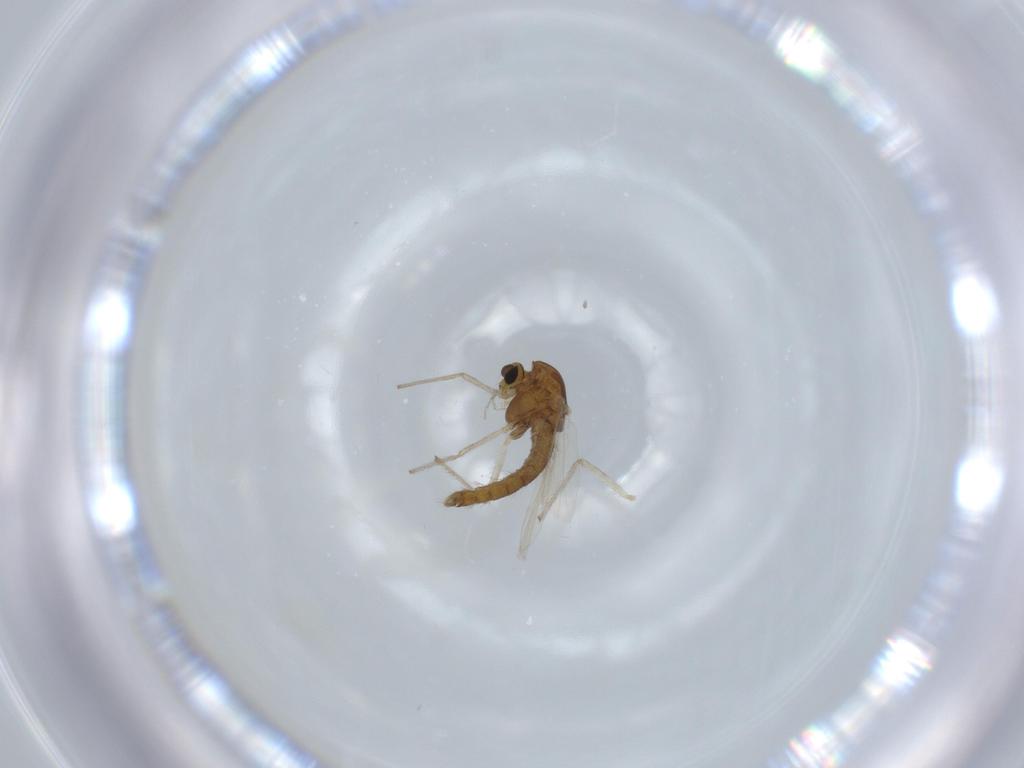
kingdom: Animalia
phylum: Arthropoda
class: Insecta
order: Diptera
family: Chironomidae
